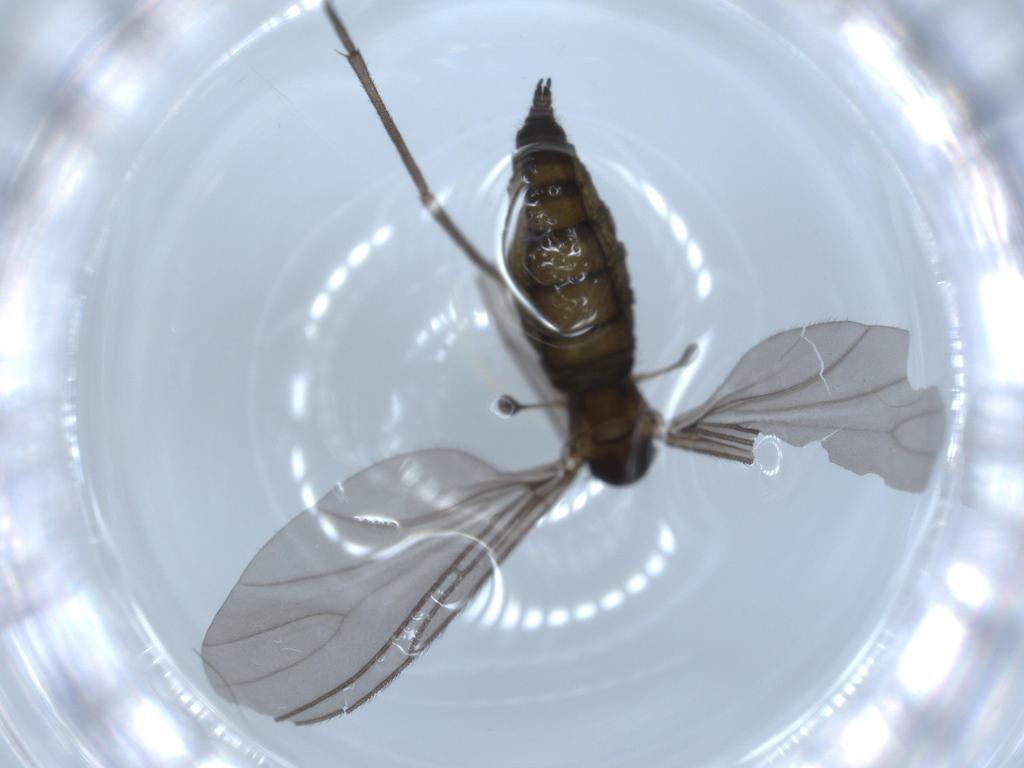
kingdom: Animalia
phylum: Arthropoda
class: Insecta
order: Diptera
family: Sciaridae
